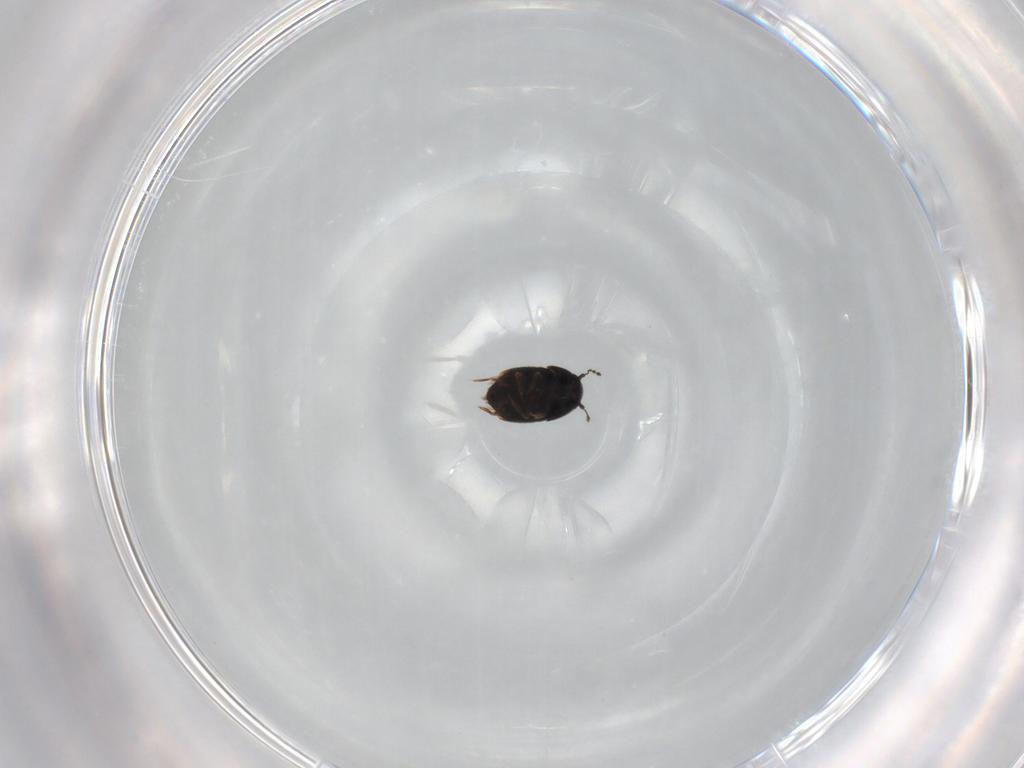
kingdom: Animalia
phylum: Arthropoda
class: Insecta
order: Coleoptera
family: Ptiliidae
